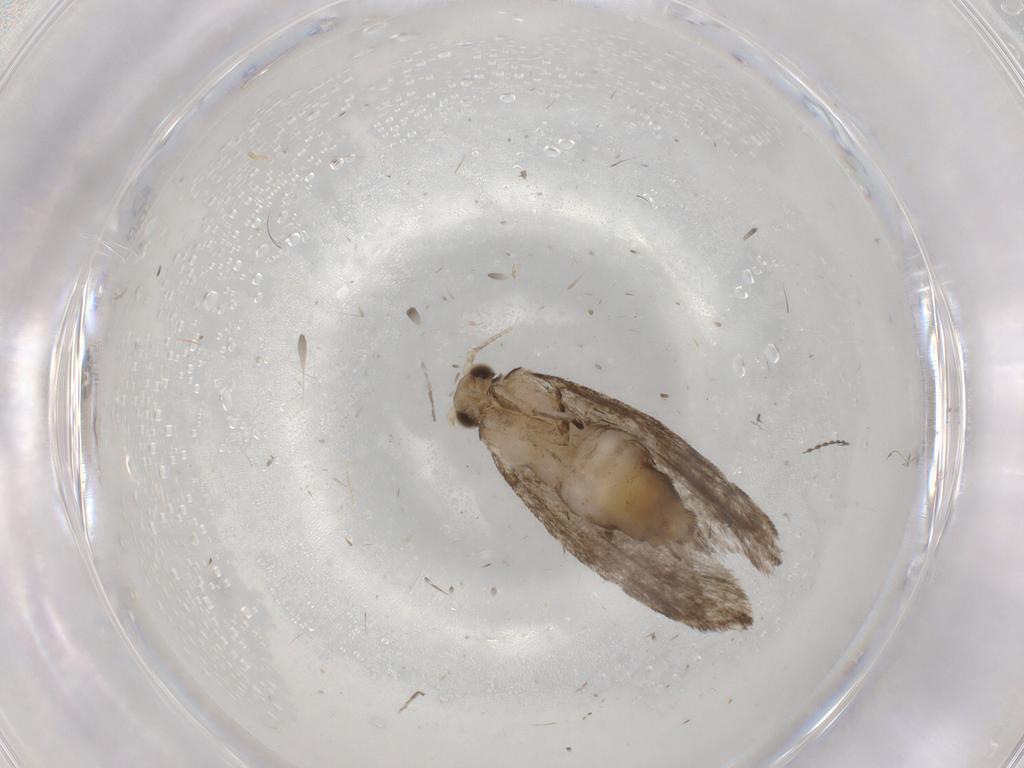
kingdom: Animalia
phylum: Arthropoda
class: Insecta
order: Lepidoptera
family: Tineidae
